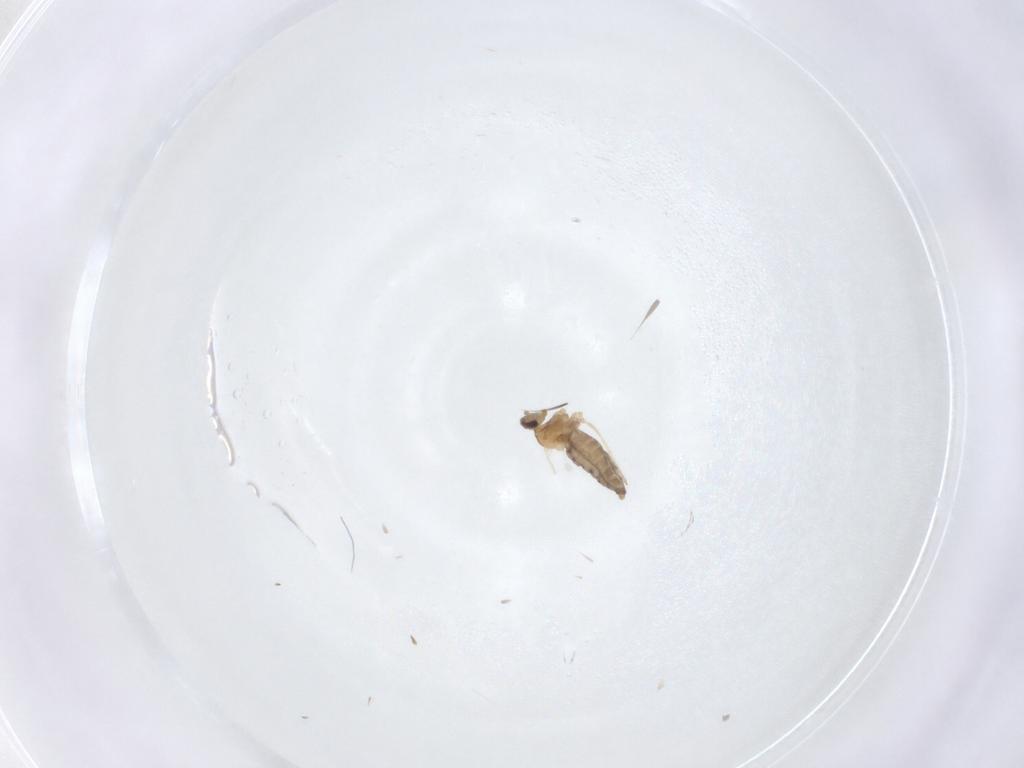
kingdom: Animalia
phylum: Arthropoda
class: Insecta
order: Diptera
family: Cecidomyiidae
